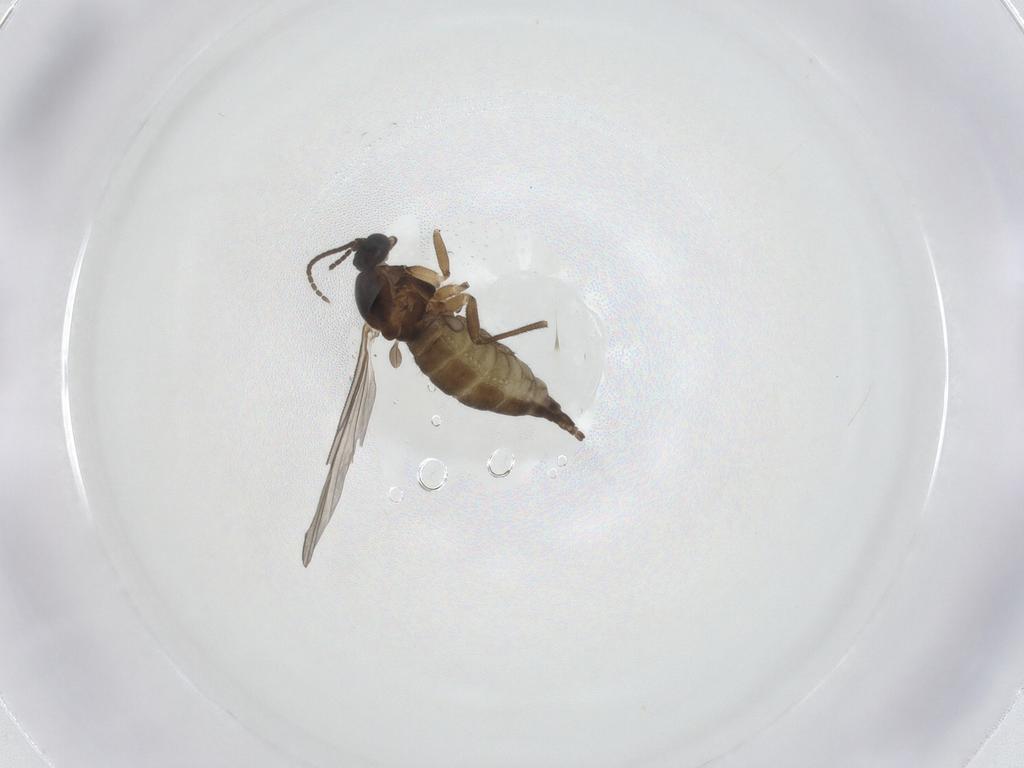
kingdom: Animalia
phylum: Arthropoda
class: Insecta
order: Diptera
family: Sciaridae
